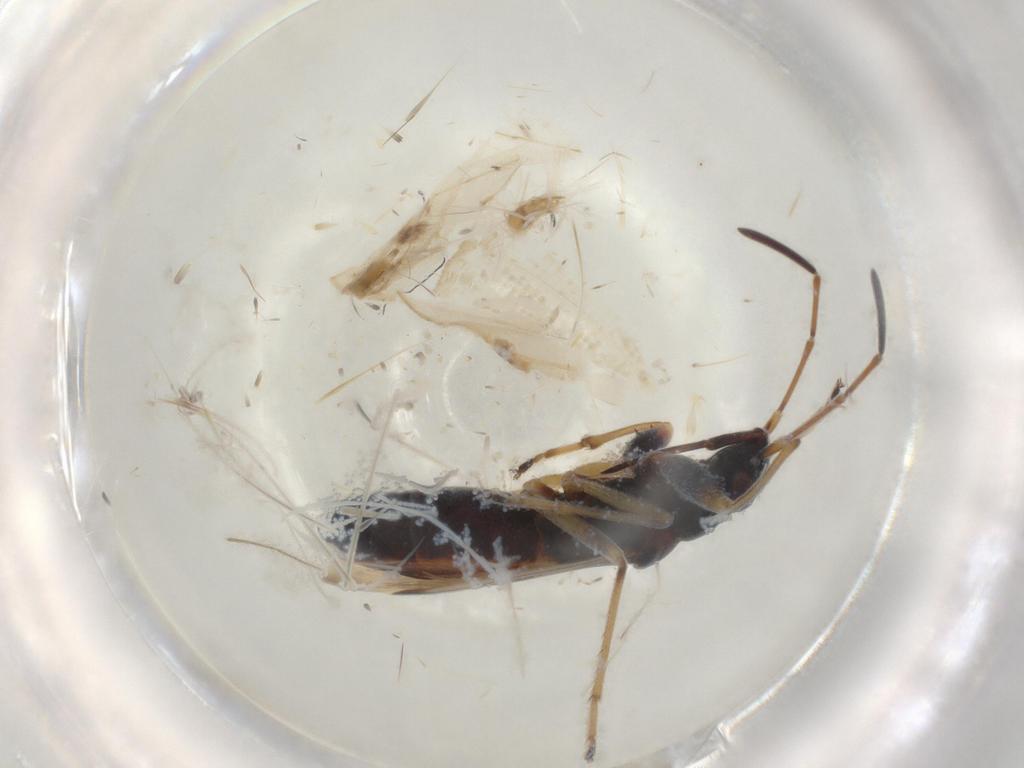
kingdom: Animalia
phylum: Arthropoda
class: Insecta
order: Hemiptera
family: Rhyparochromidae
